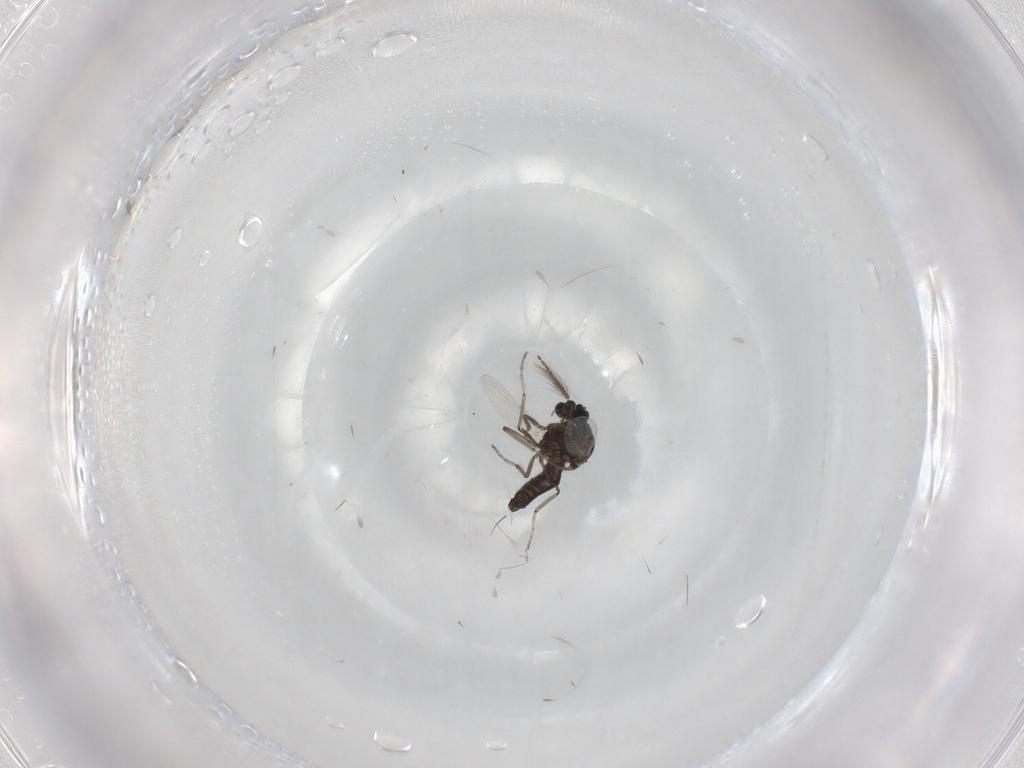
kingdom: Animalia
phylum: Arthropoda
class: Insecta
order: Diptera
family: Ceratopogonidae
